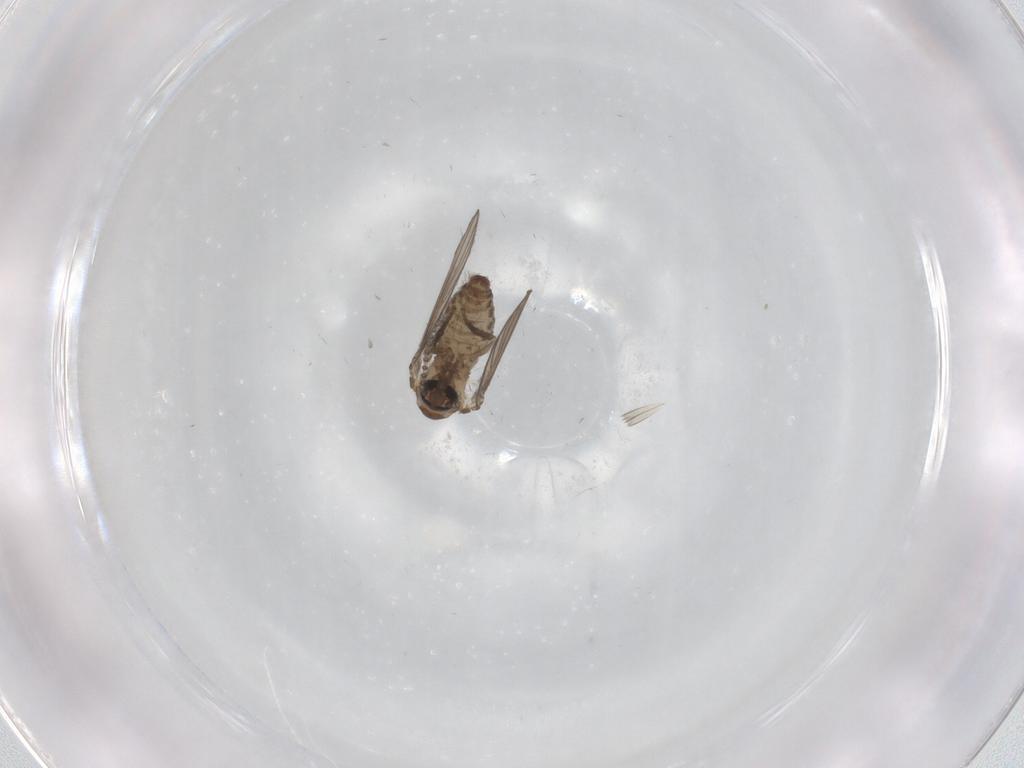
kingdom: Animalia
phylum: Arthropoda
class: Insecta
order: Diptera
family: Psychodidae
